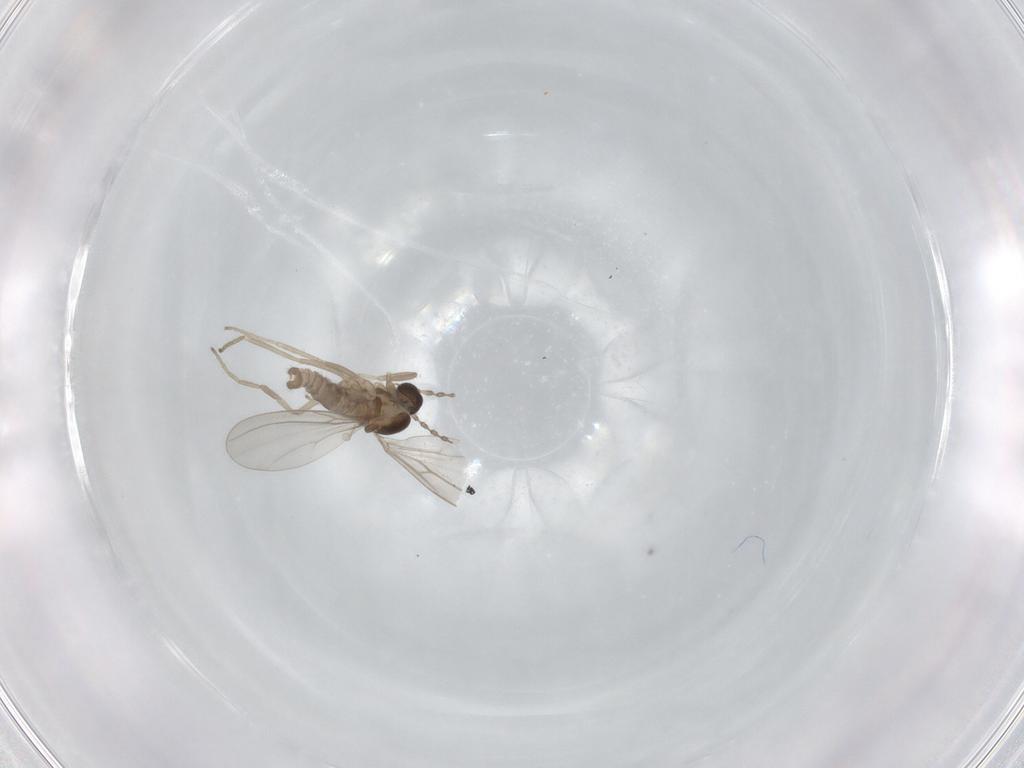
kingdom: Animalia
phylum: Arthropoda
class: Insecta
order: Diptera
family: Cecidomyiidae
